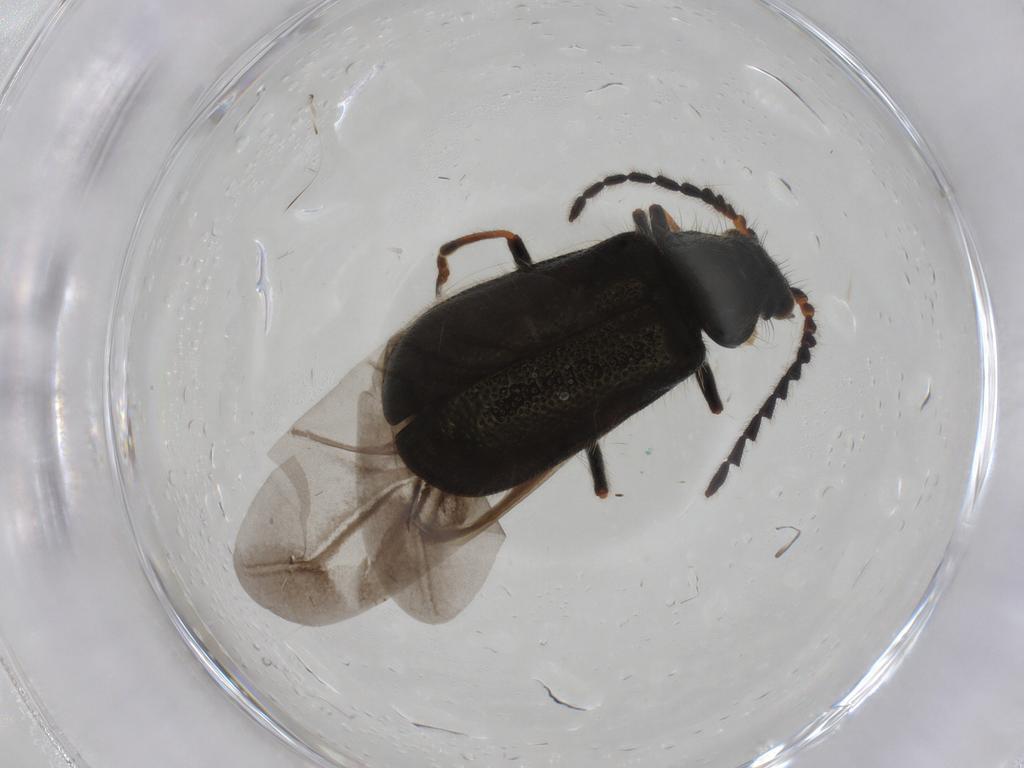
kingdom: Animalia
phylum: Arthropoda
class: Insecta
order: Coleoptera
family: Melyridae
